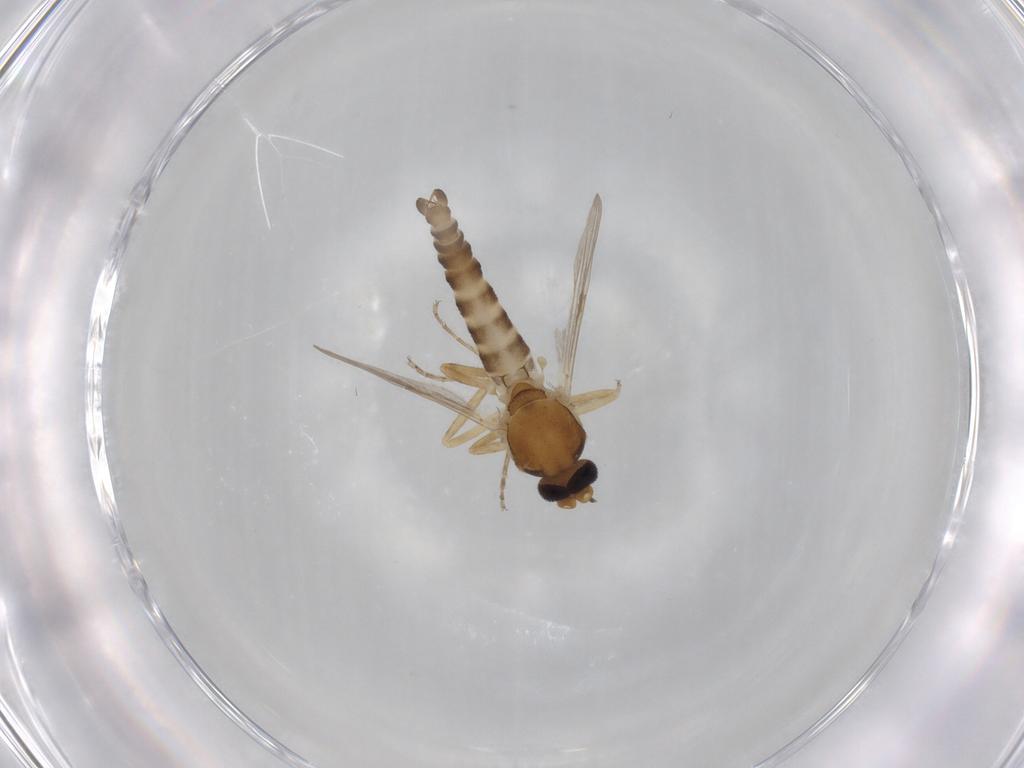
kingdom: Animalia
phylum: Arthropoda
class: Insecta
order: Diptera
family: Ceratopogonidae
